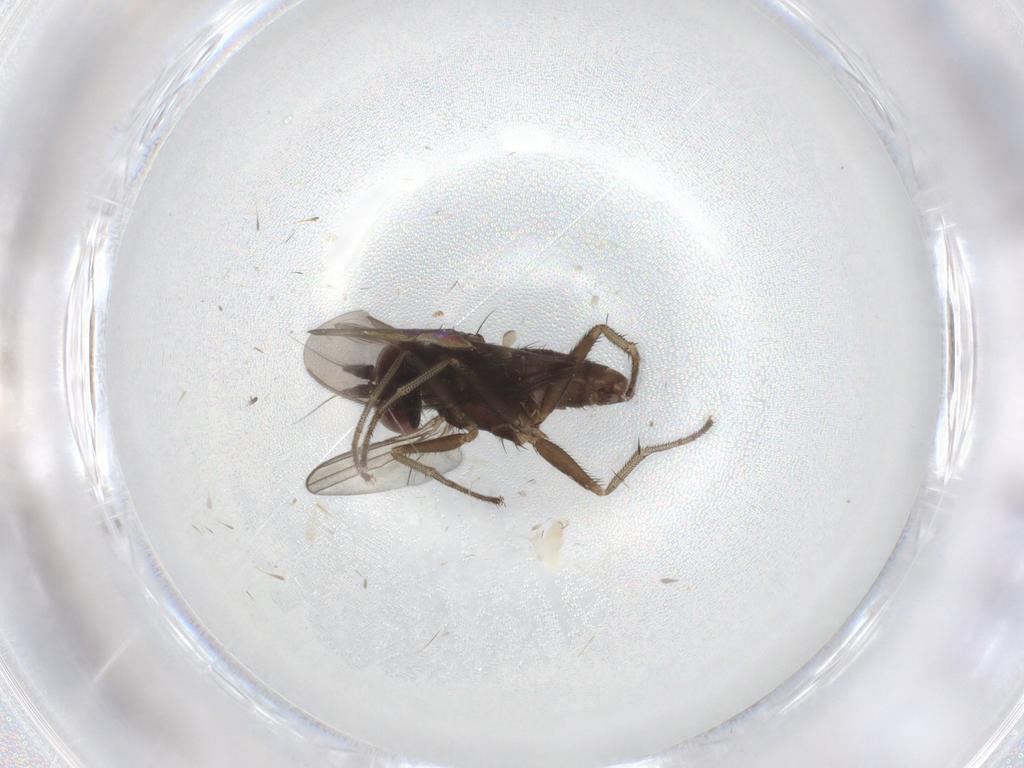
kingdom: Animalia
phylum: Arthropoda
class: Insecta
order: Diptera
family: Dolichopodidae
